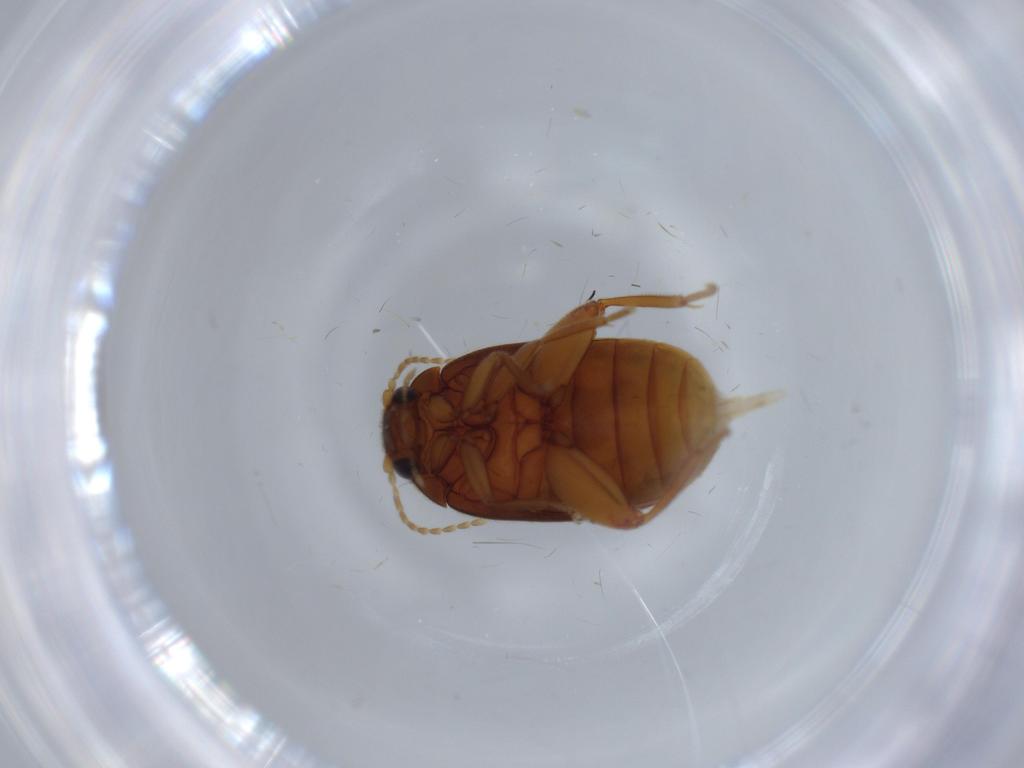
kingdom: Animalia
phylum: Arthropoda
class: Insecta
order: Coleoptera
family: Scirtidae
